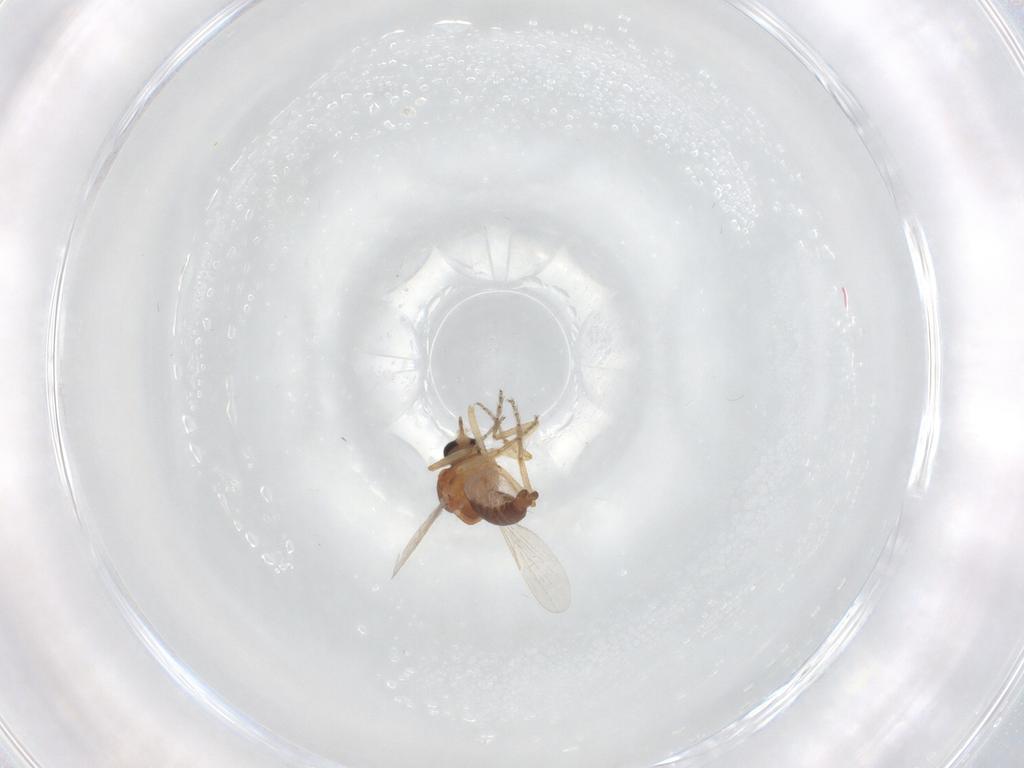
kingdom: Animalia
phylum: Arthropoda
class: Insecta
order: Diptera
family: Ceratopogonidae
